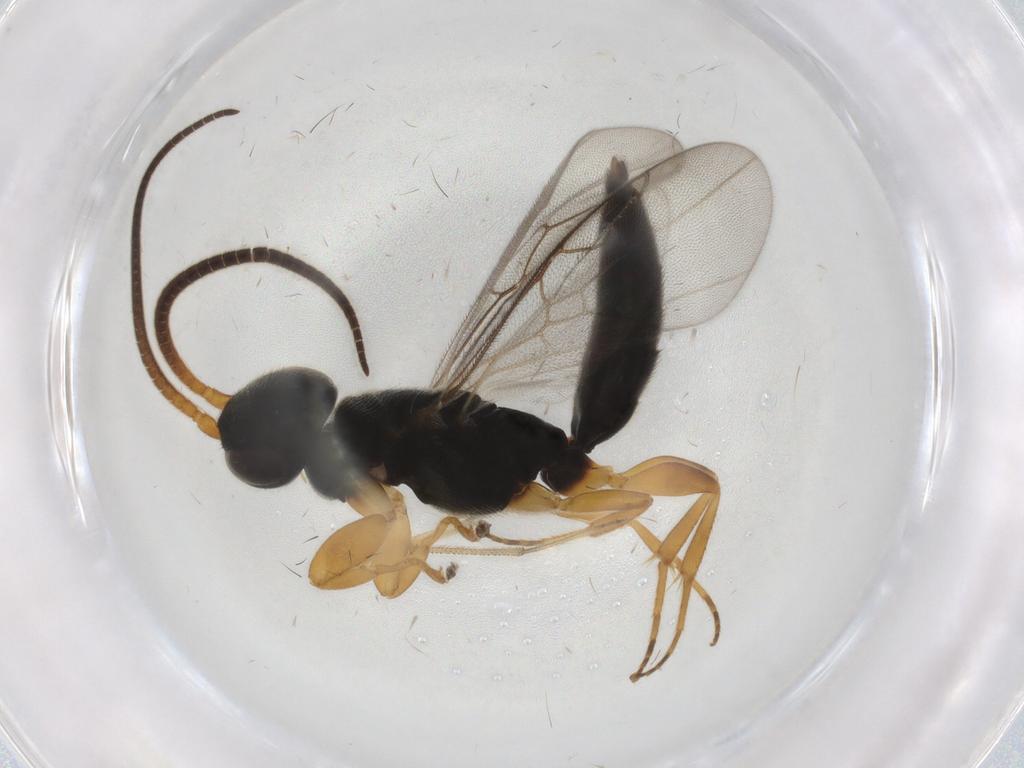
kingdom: Animalia
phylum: Arthropoda
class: Insecta
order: Hymenoptera
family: Sclerogibbidae
